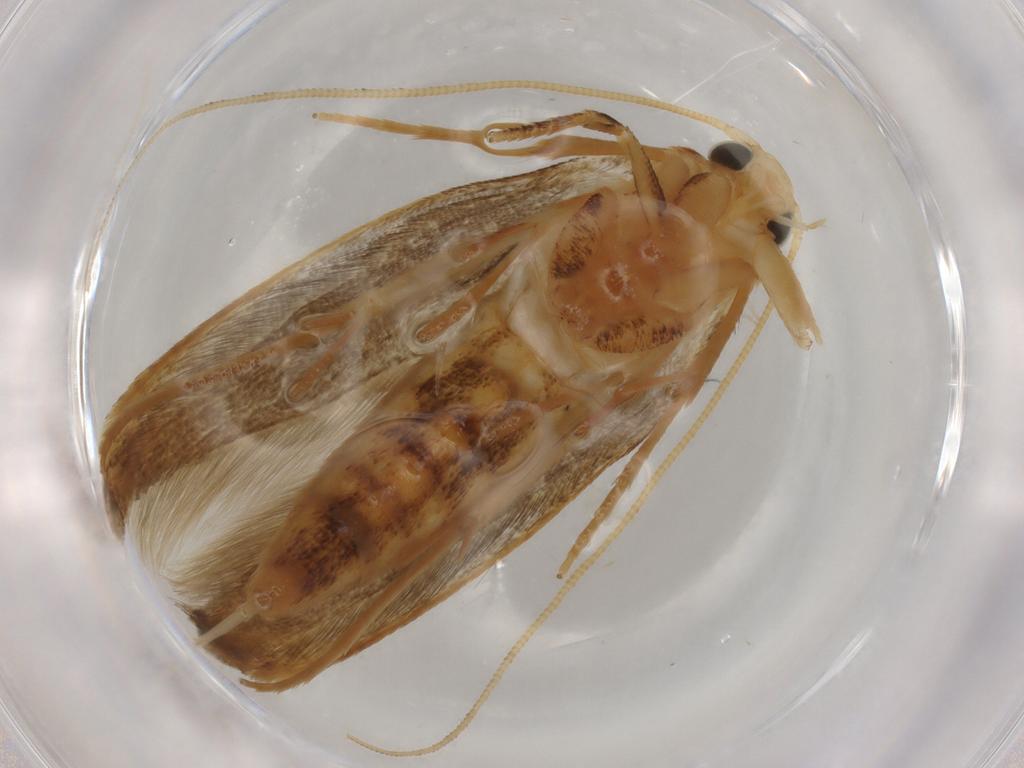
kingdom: Animalia
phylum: Arthropoda
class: Insecta
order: Lepidoptera
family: Tineidae
